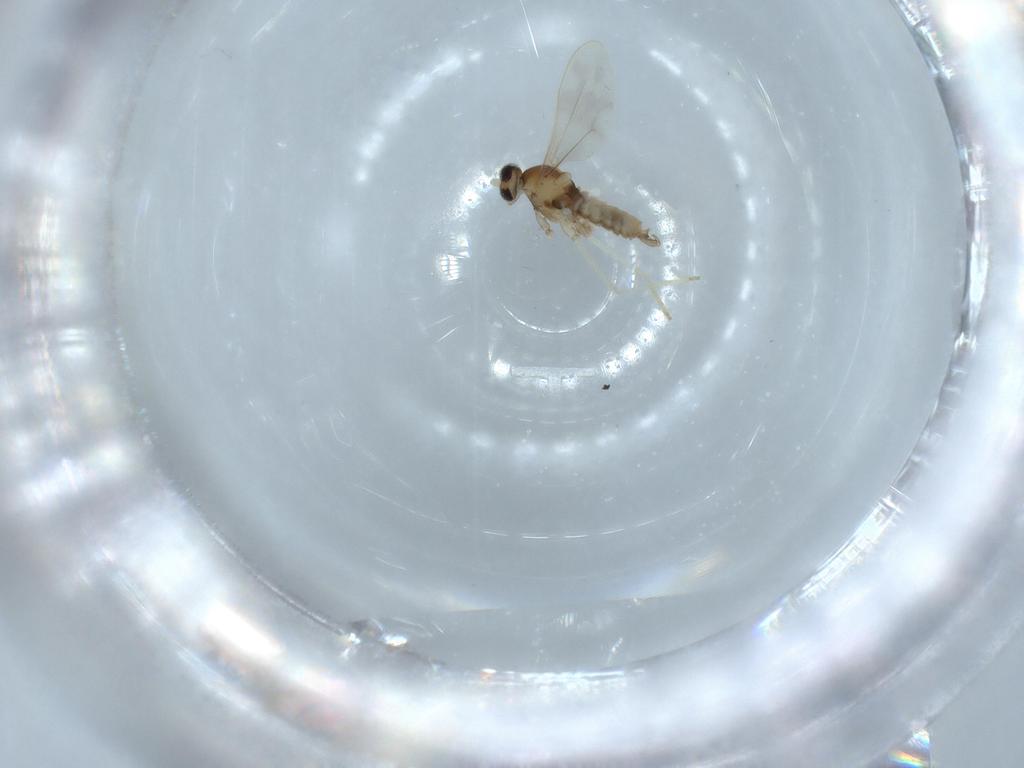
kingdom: Animalia
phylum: Arthropoda
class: Insecta
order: Diptera
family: Cecidomyiidae
